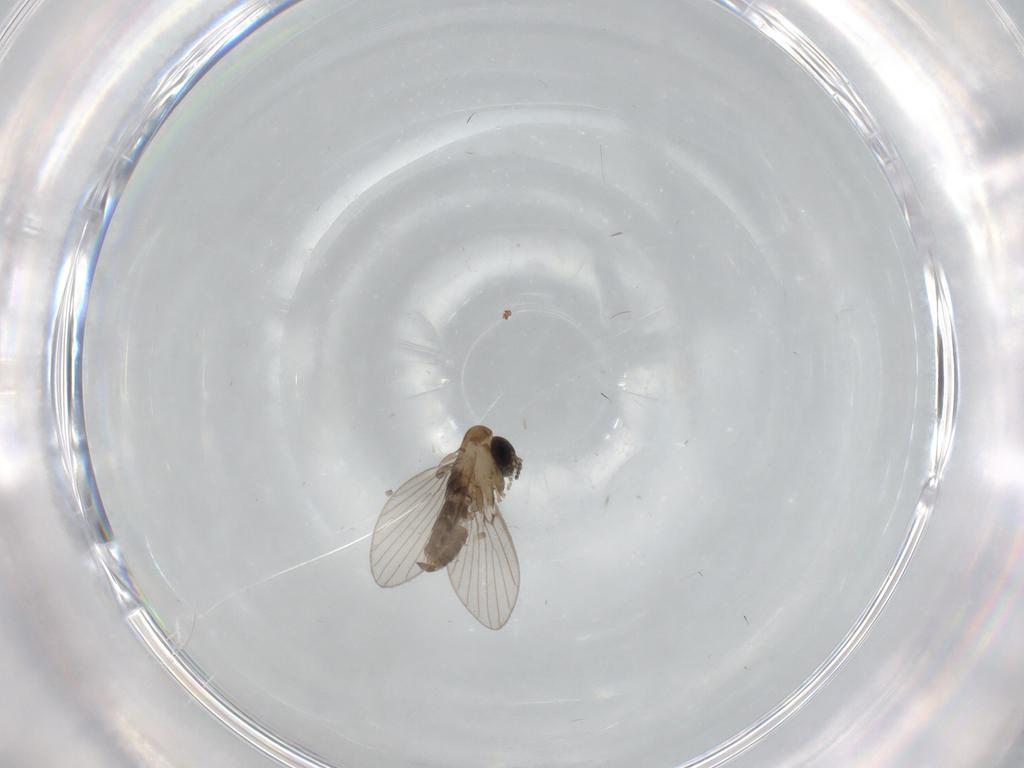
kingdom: Animalia
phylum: Arthropoda
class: Insecta
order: Diptera
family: Psychodidae
